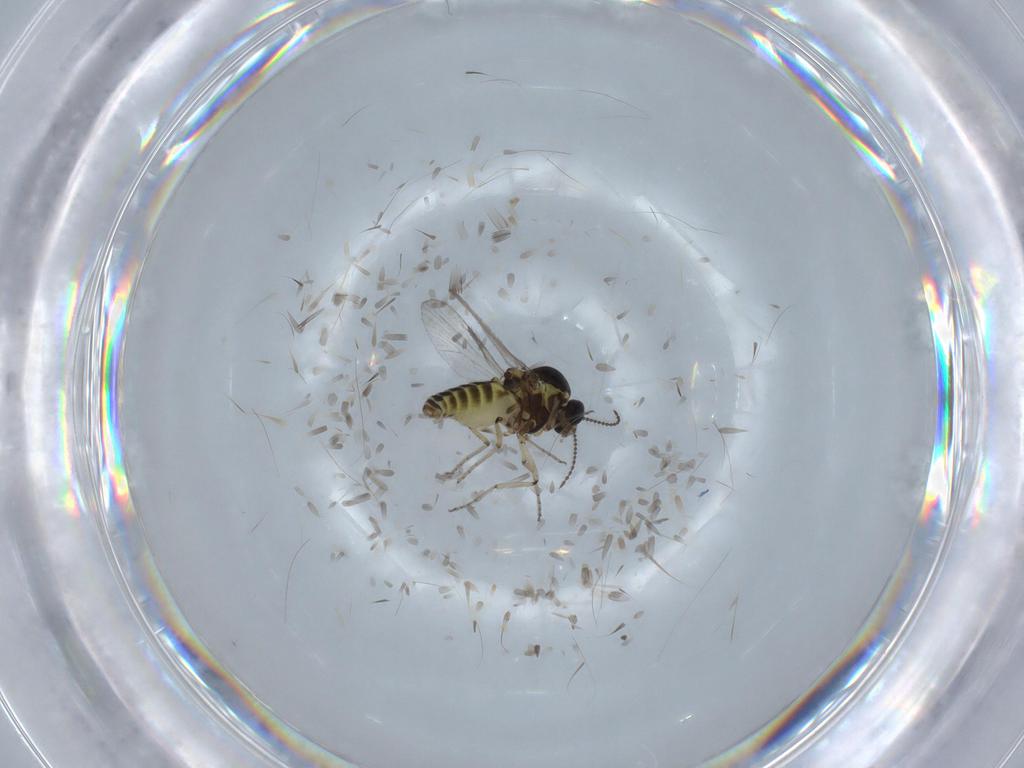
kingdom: Animalia
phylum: Arthropoda
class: Insecta
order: Diptera
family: Limoniidae
